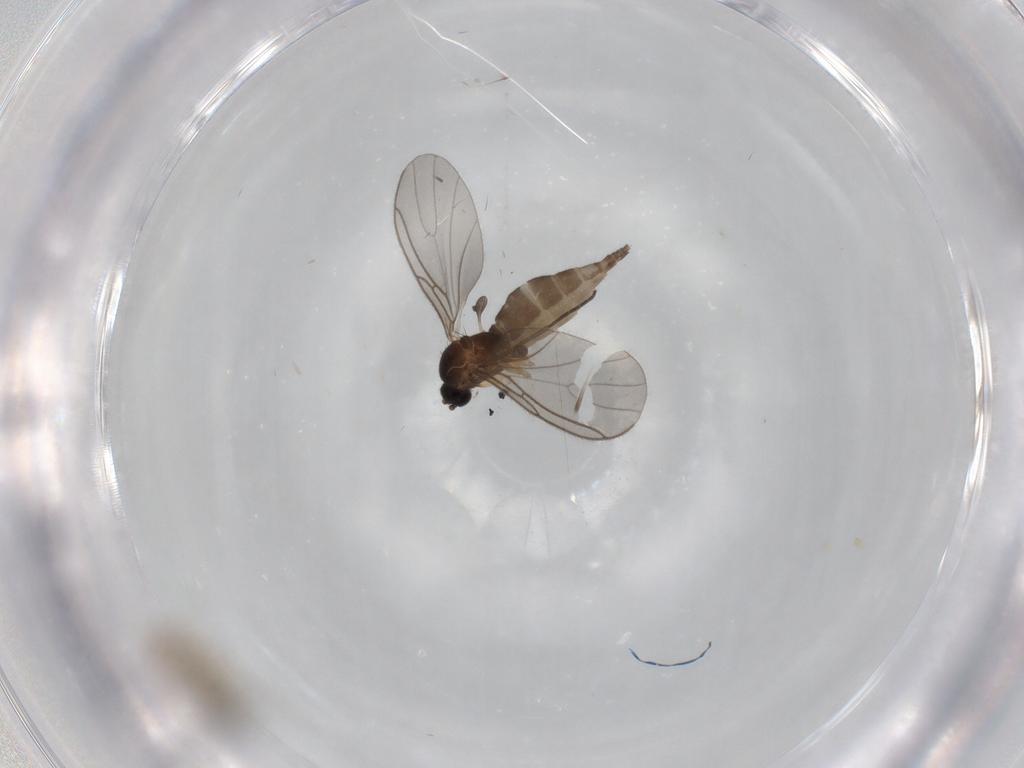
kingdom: Animalia
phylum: Arthropoda
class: Insecta
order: Diptera
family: Sciaridae
